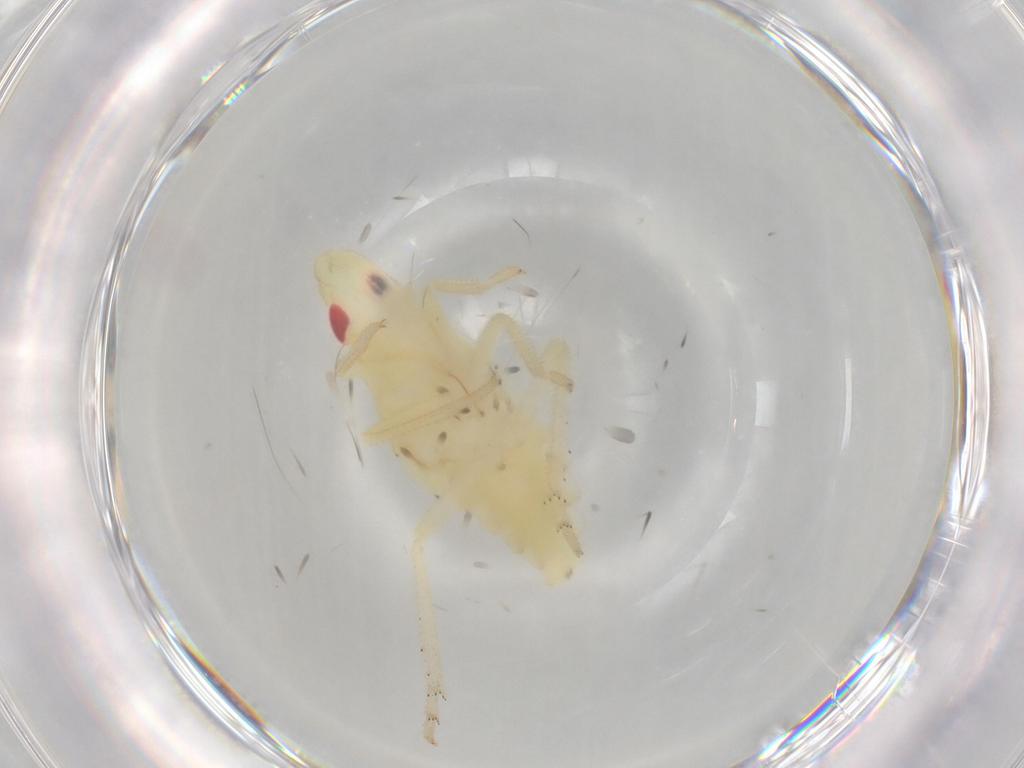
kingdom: Animalia
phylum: Arthropoda
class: Insecta
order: Hemiptera
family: Tropiduchidae
